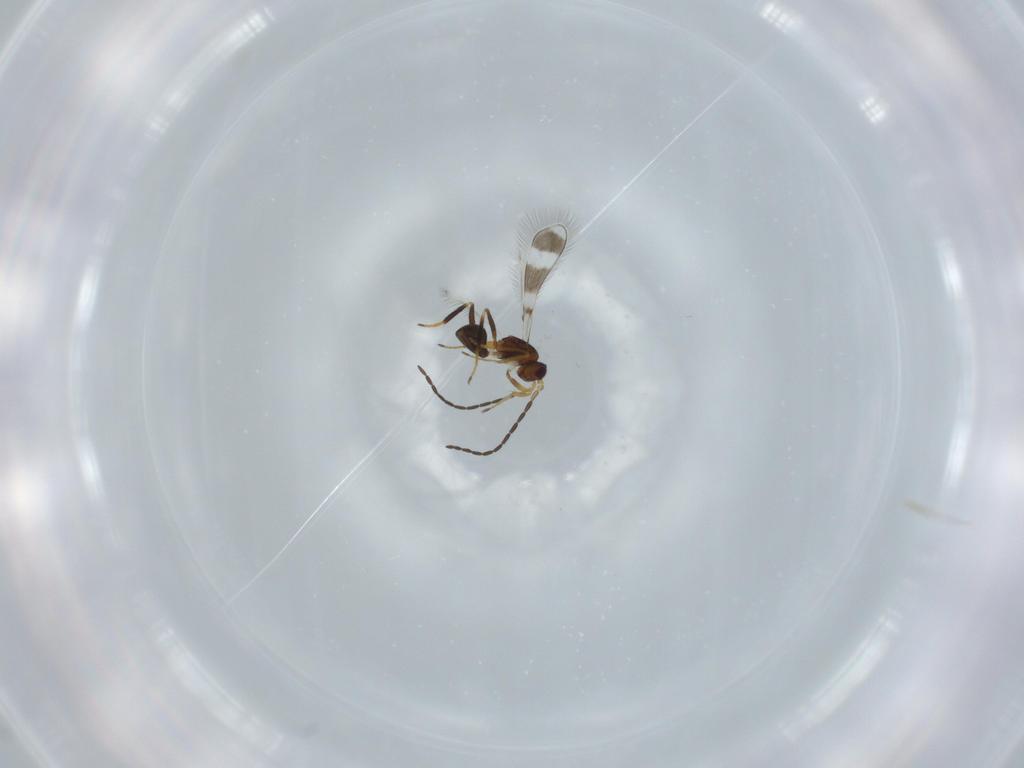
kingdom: Animalia
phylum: Arthropoda
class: Insecta
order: Hymenoptera
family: Mymaridae
